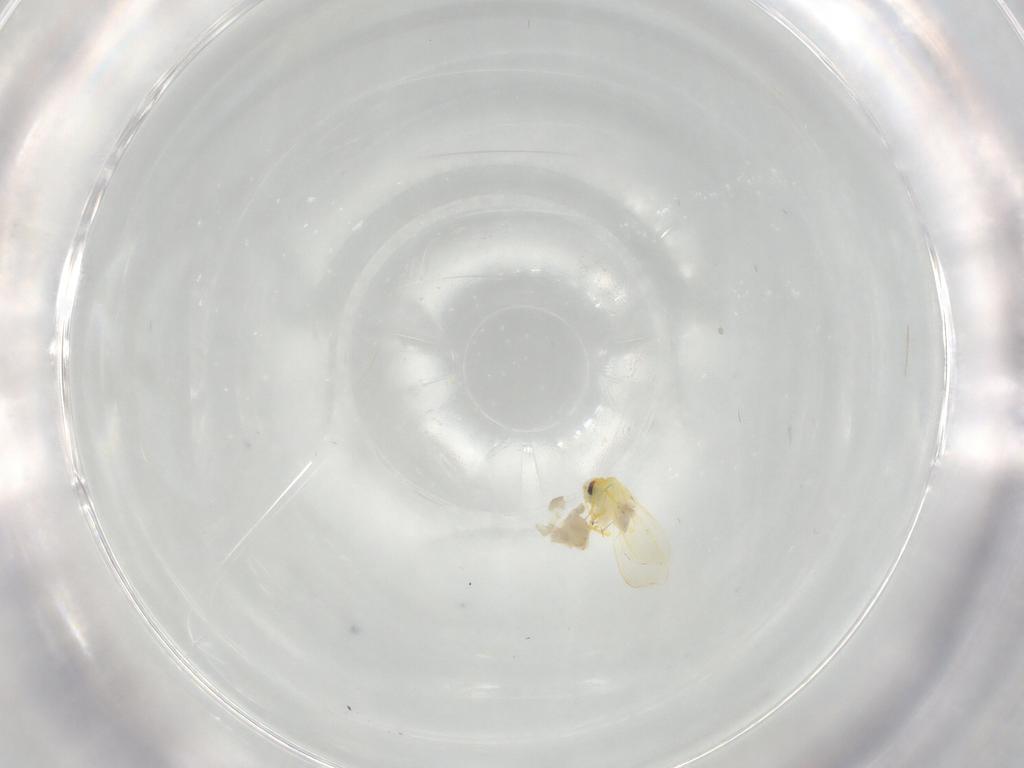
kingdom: Animalia
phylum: Arthropoda
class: Insecta
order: Hemiptera
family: Aleyrodidae
